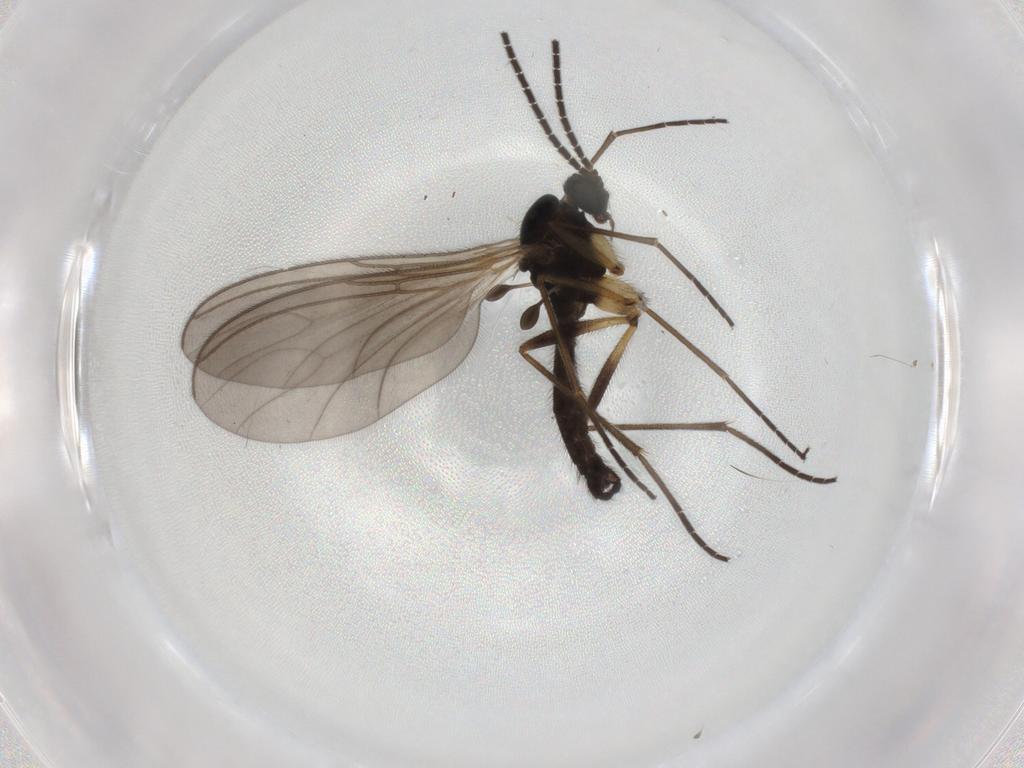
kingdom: Animalia
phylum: Arthropoda
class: Insecta
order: Diptera
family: Sciaridae
